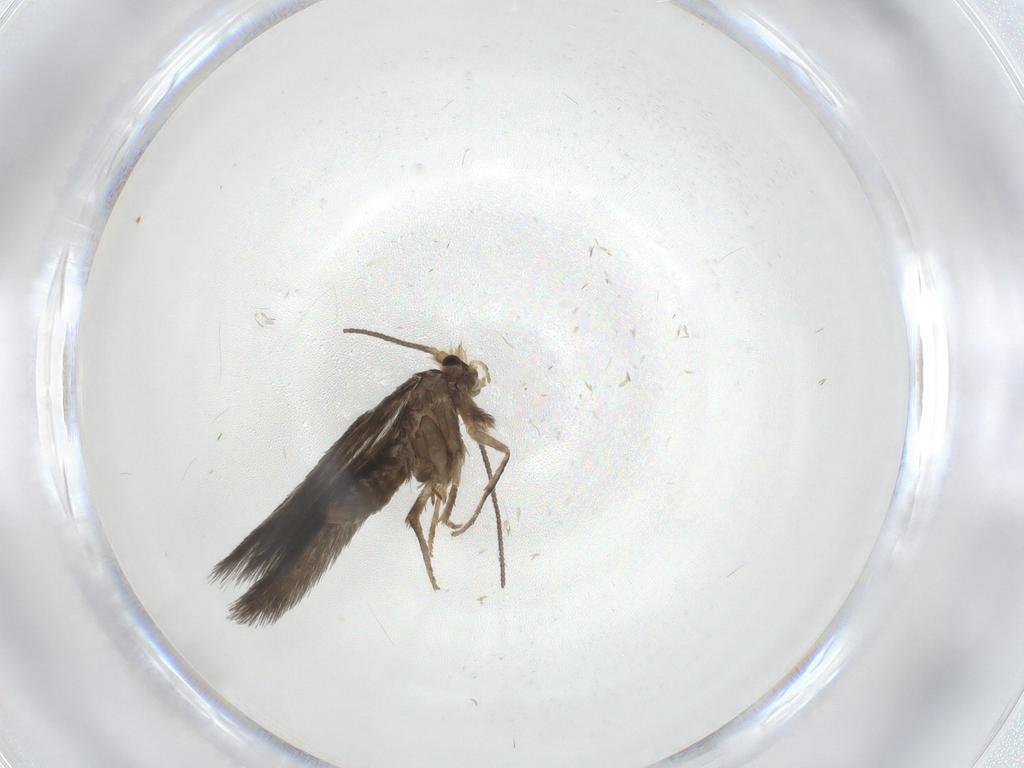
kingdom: Animalia
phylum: Arthropoda
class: Insecta
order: Lepidoptera
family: Nepticulidae
